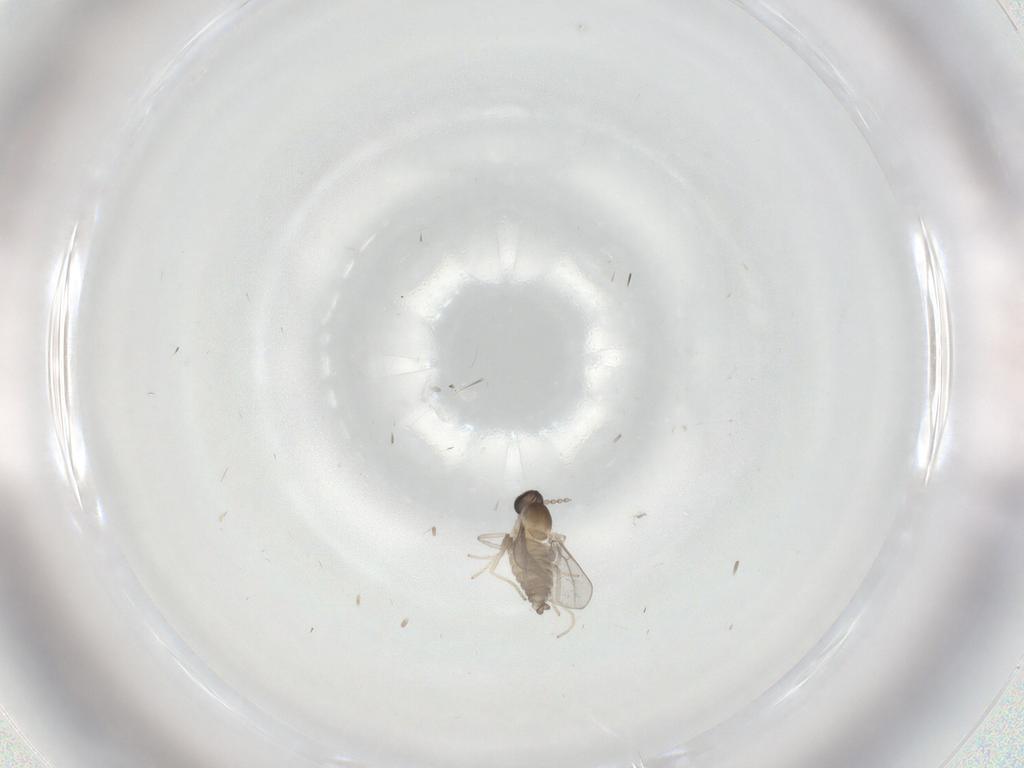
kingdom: Animalia
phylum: Arthropoda
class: Insecta
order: Diptera
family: Cecidomyiidae
